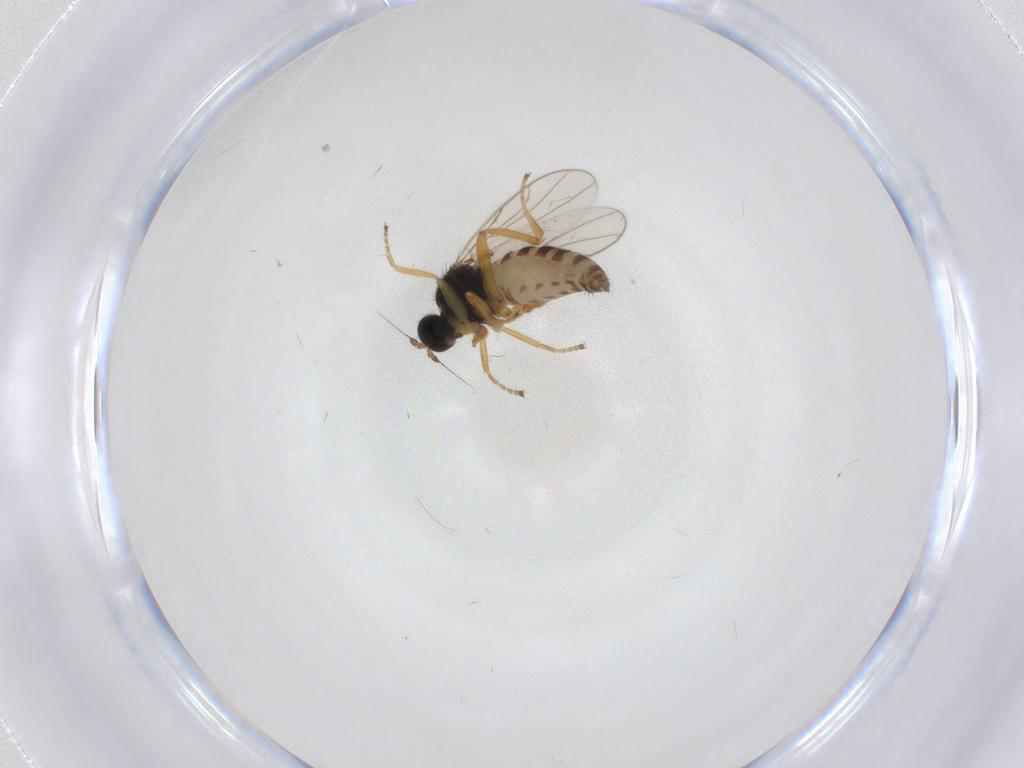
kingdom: Animalia
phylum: Arthropoda
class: Insecta
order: Diptera
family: Hybotidae
